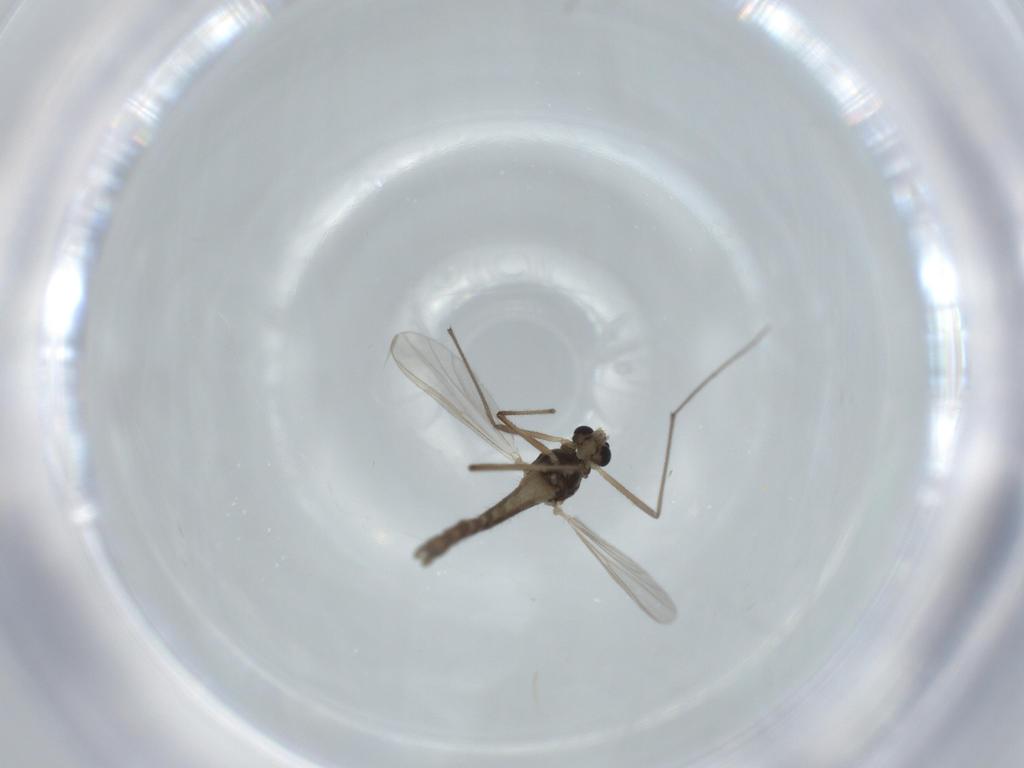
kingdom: Animalia
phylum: Arthropoda
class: Insecta
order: Diptera
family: Chironomidae
